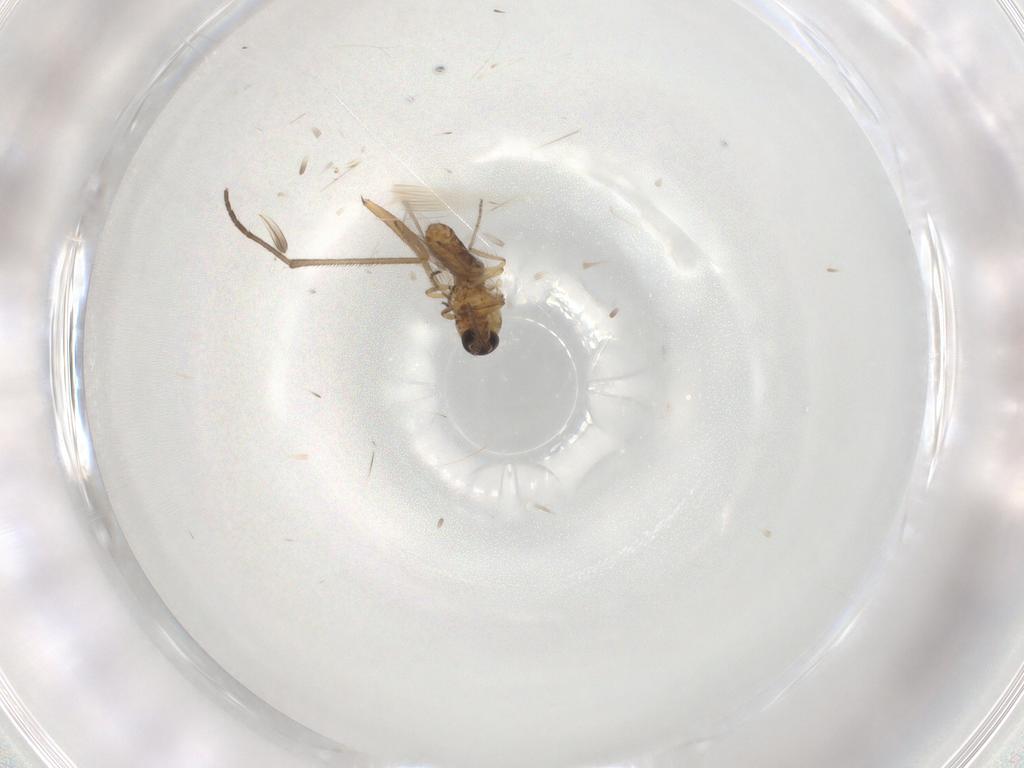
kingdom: Animalia
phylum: Arthropoda
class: Insecta
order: Diptera
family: Ceratopogonidae
